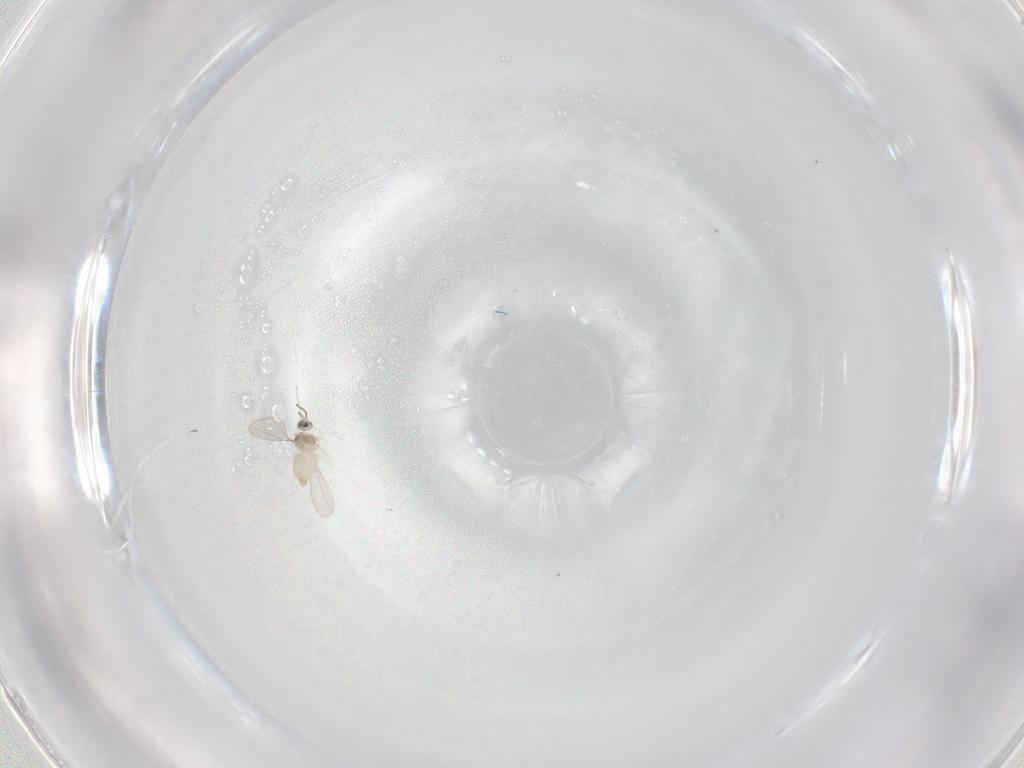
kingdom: Animalia
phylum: Arthropoda
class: Insecta
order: Diptera
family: Cecidomyiidae
